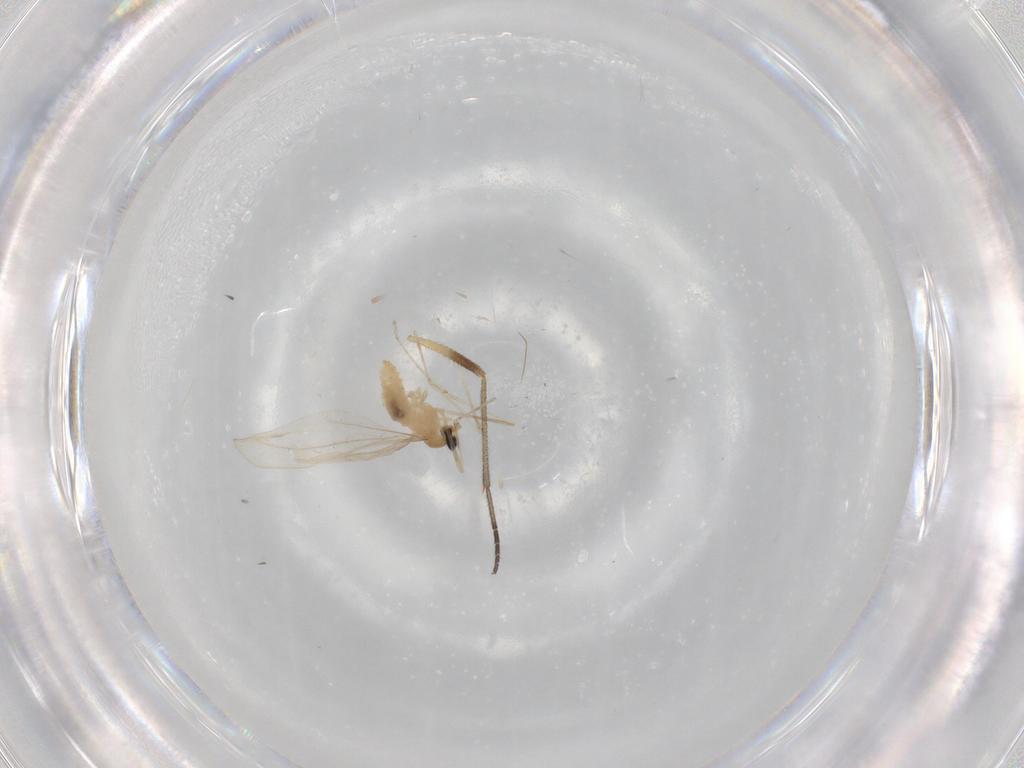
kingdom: Animalia
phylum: Arthropoda
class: Insecta
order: Diptera
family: Cecidomyiidae
